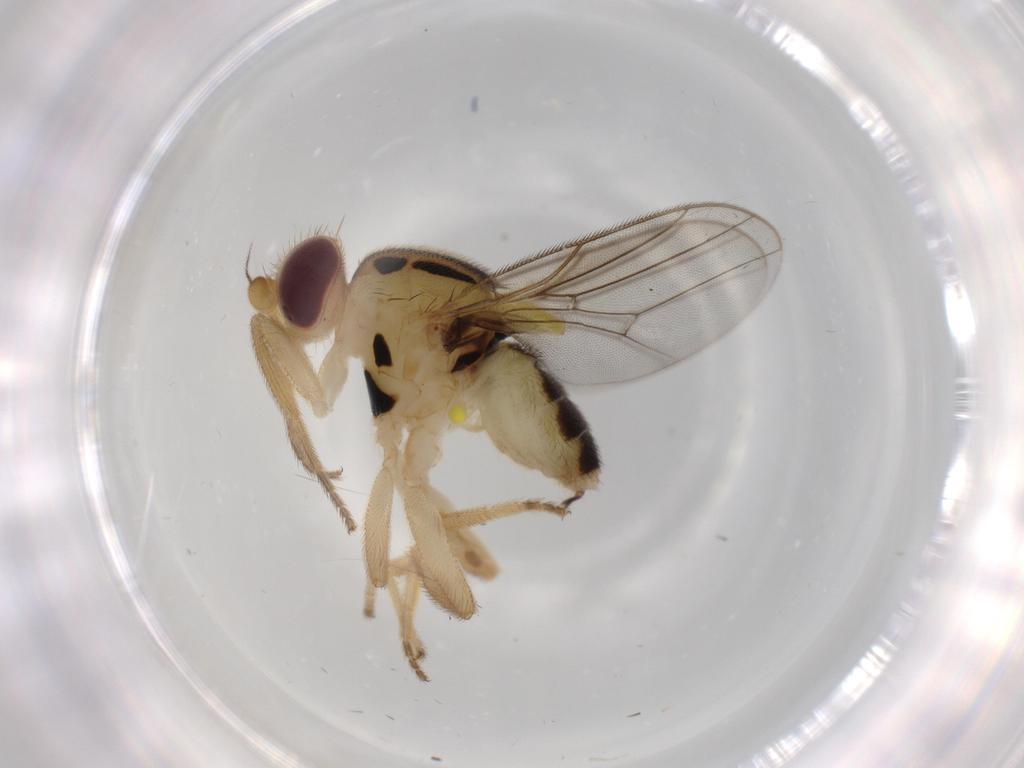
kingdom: Animalia
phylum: Arthropoda
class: Insecta
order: Diptera
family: Chloropidae
